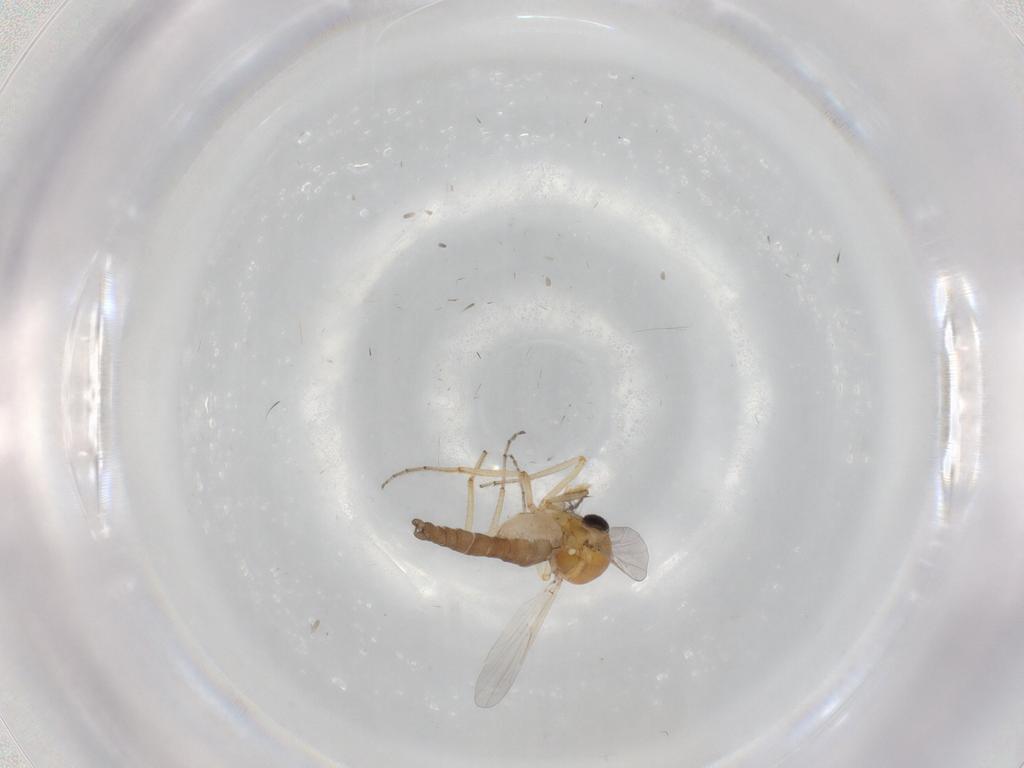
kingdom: Animalia
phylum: Arthropoda
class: Insecta
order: Diptera
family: Ceratopogonidae
